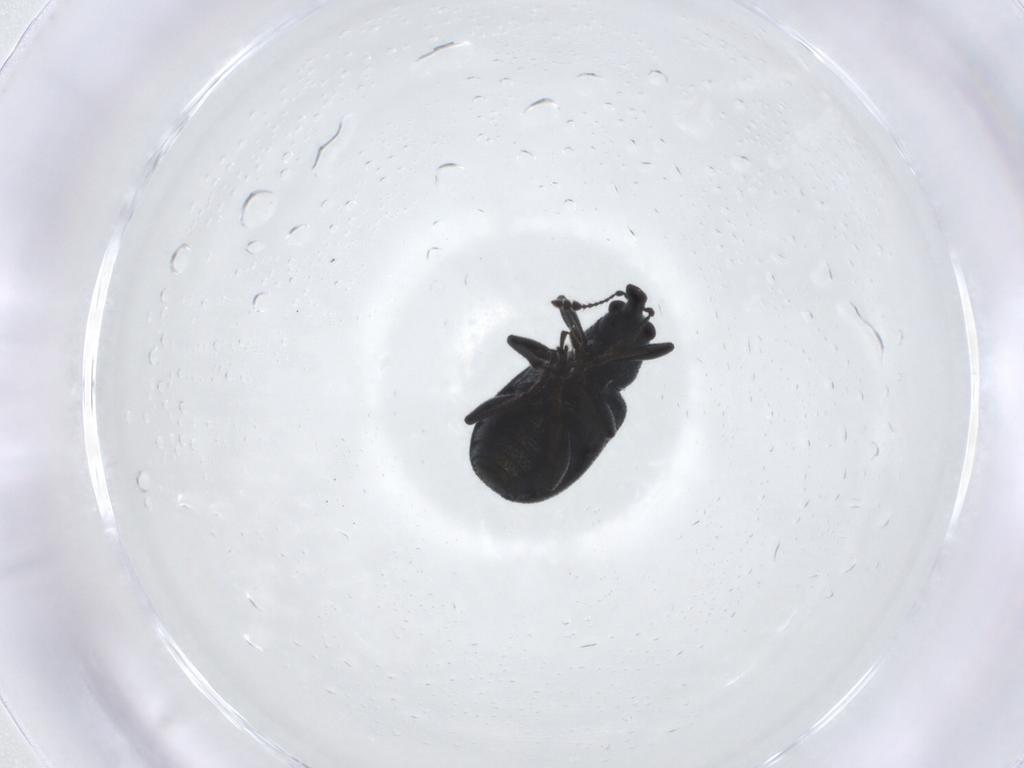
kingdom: Animalia
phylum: Arthropoda
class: Insecta
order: Coleoptera
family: Attelabidae
